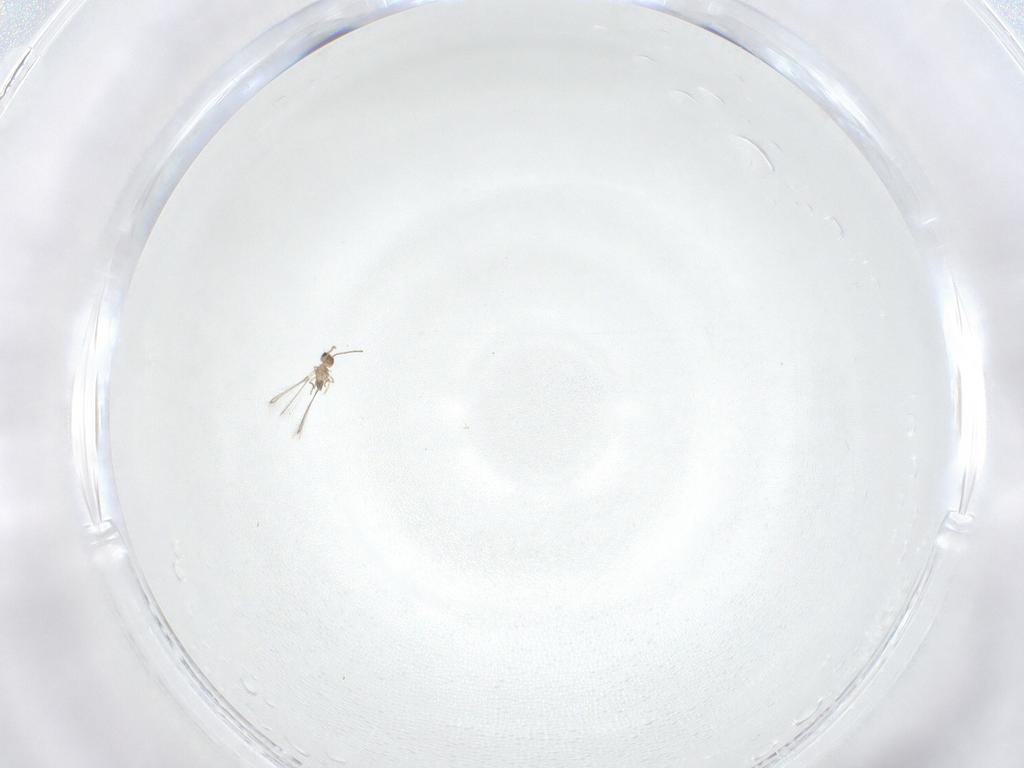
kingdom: Animalia
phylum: Arthropoda
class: Insecta
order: Hymenoptera
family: Mymaridae
